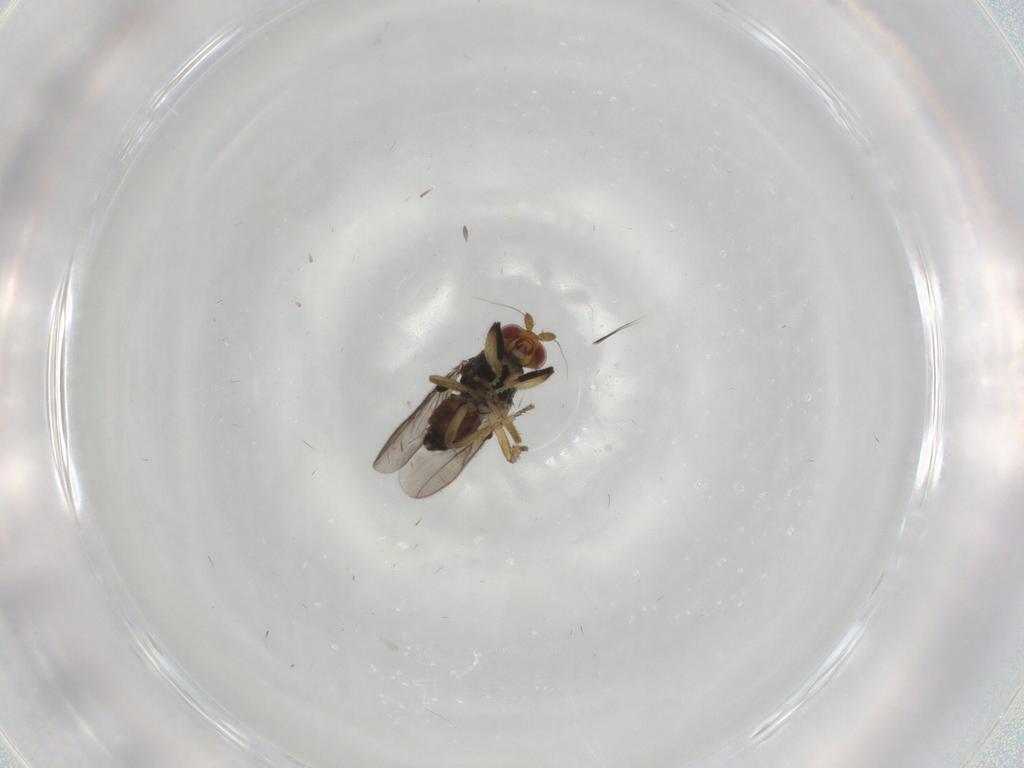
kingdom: Animalia
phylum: Arthropoda
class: Insecta
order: Diptera
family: Sphaeroceridae
